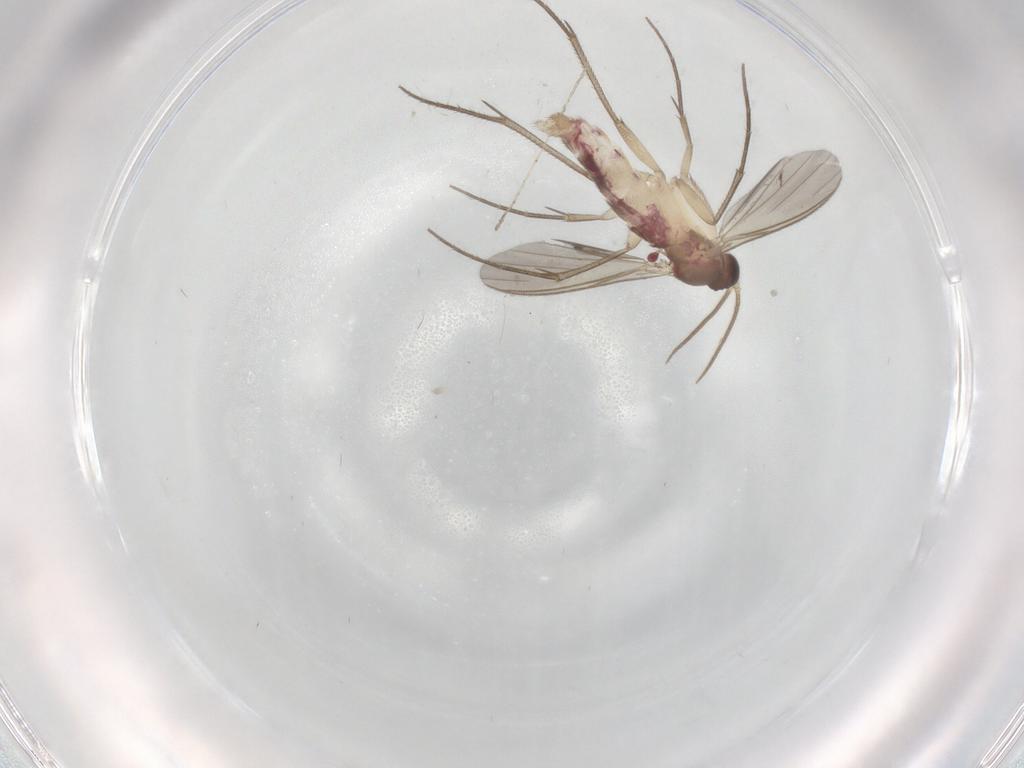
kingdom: Animalia
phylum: Arthropoda
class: Insecta
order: Diptera
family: Mycetophilidae
